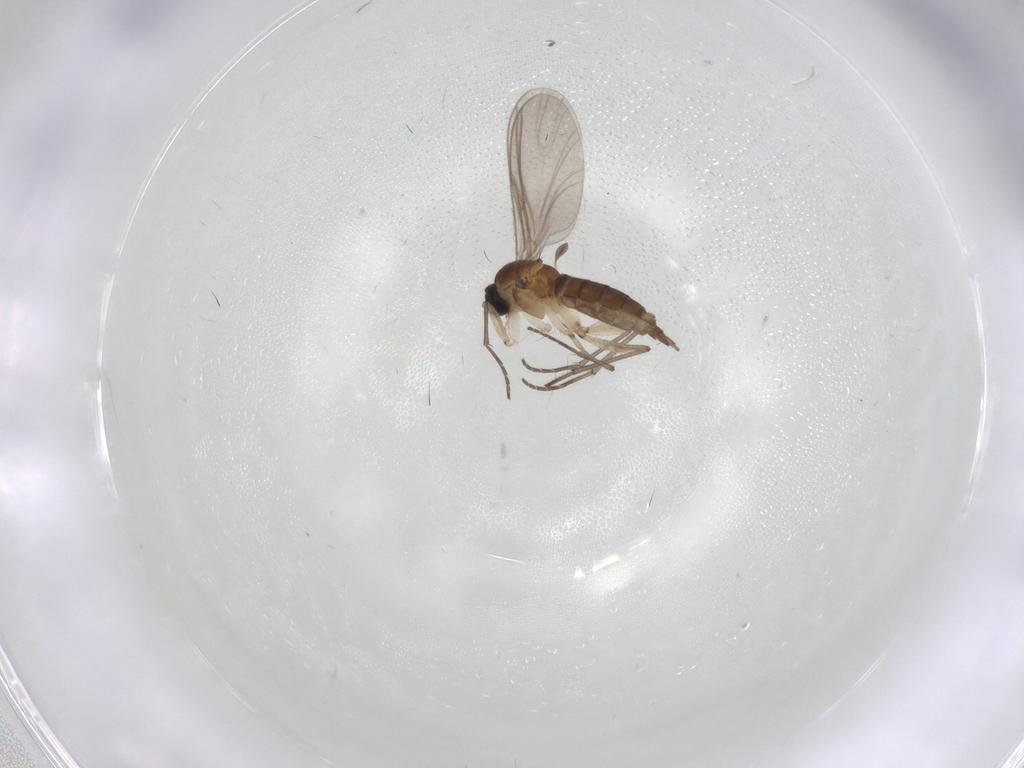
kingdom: Animalia
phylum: Arthropoda
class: Insecta
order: Diptera
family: Sciaridae
